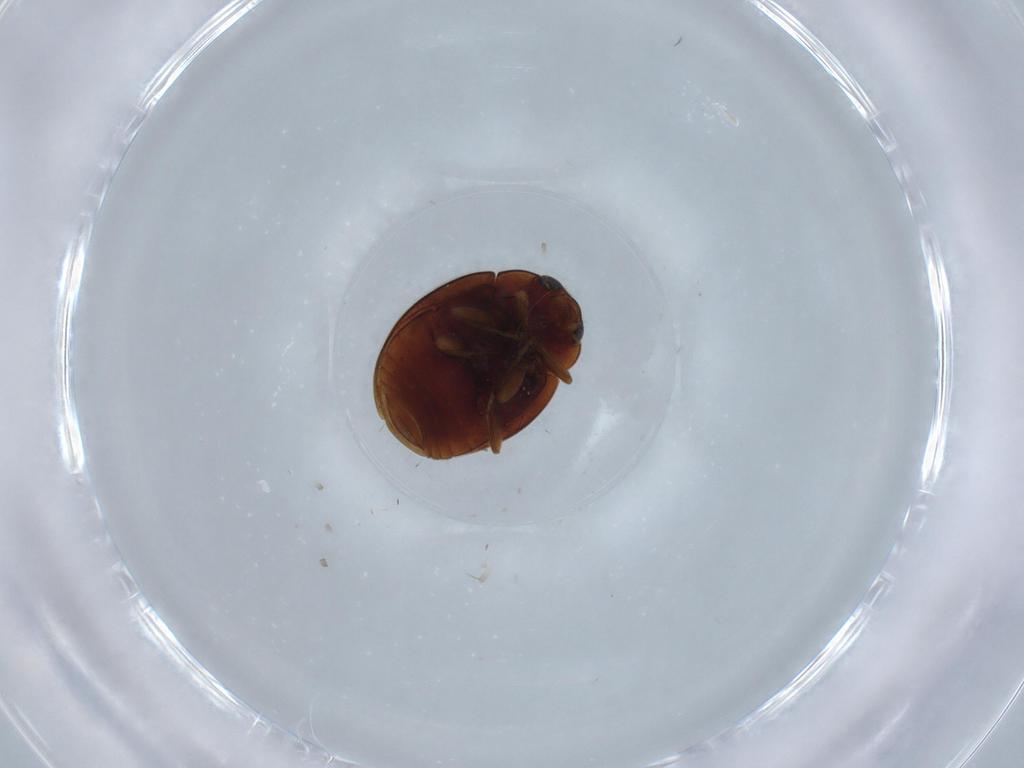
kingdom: Animalia
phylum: Arthropoda
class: Insecta
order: Coleoptera
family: Coccinellidae
